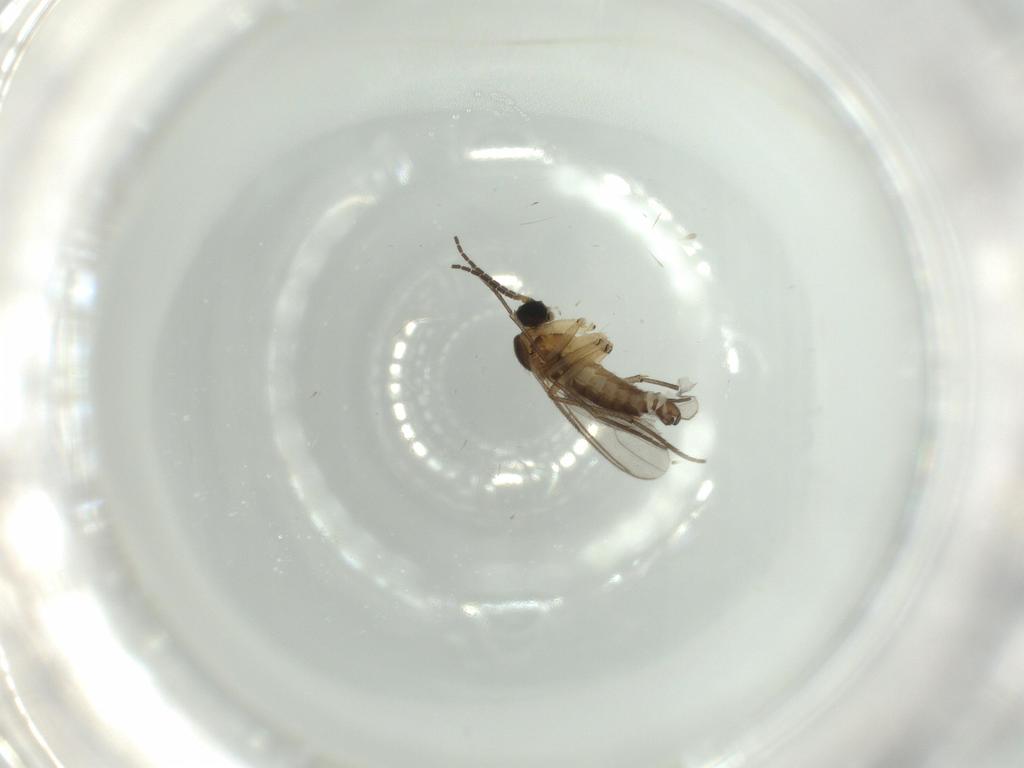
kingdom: Animalia
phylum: Arthropoda
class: Insecta
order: Diptera
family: Sciaridae
